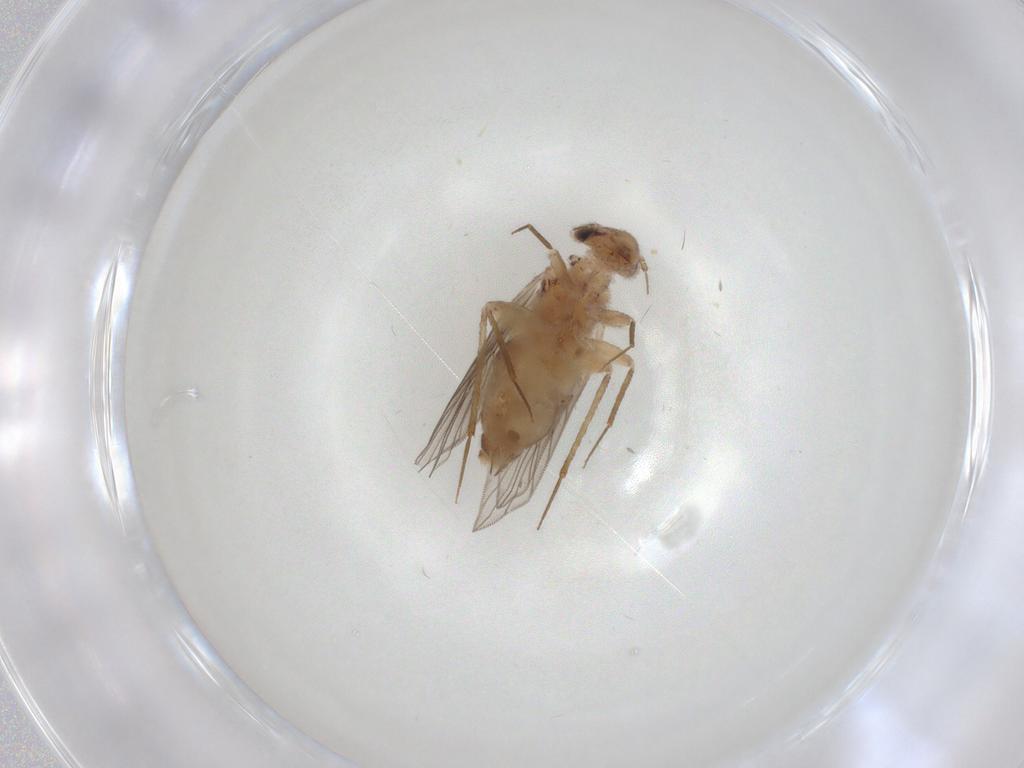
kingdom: Animalia
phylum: Arthropoda
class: Insecta
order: Psocodea
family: Lepidopsocidae
